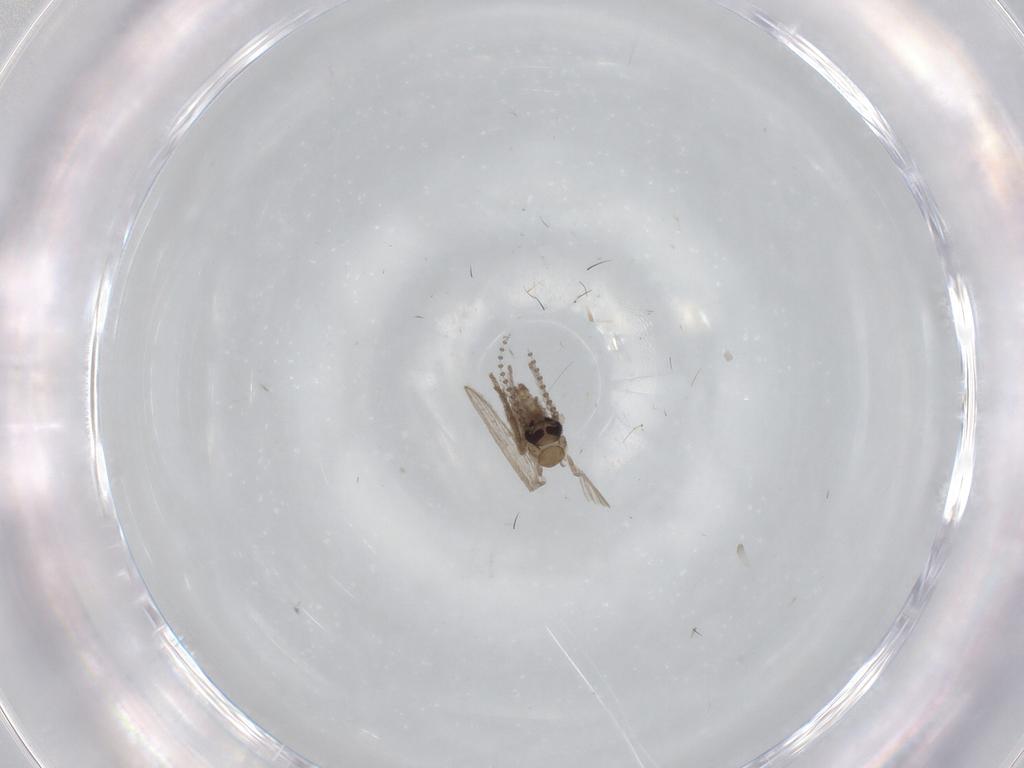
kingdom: Animalia
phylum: Arthropoda
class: Insecta
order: Diptera
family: Psychodidae
